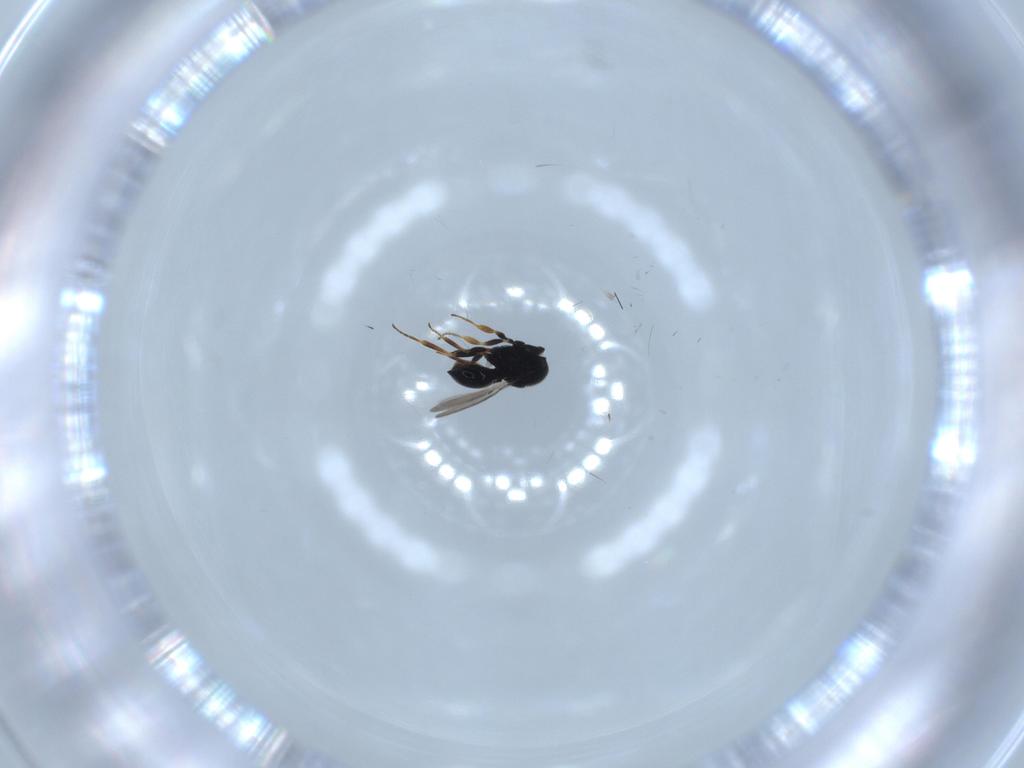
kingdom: Animalia
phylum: Arthropoda
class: Insecta
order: Hymenoptera
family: Scelionidae
